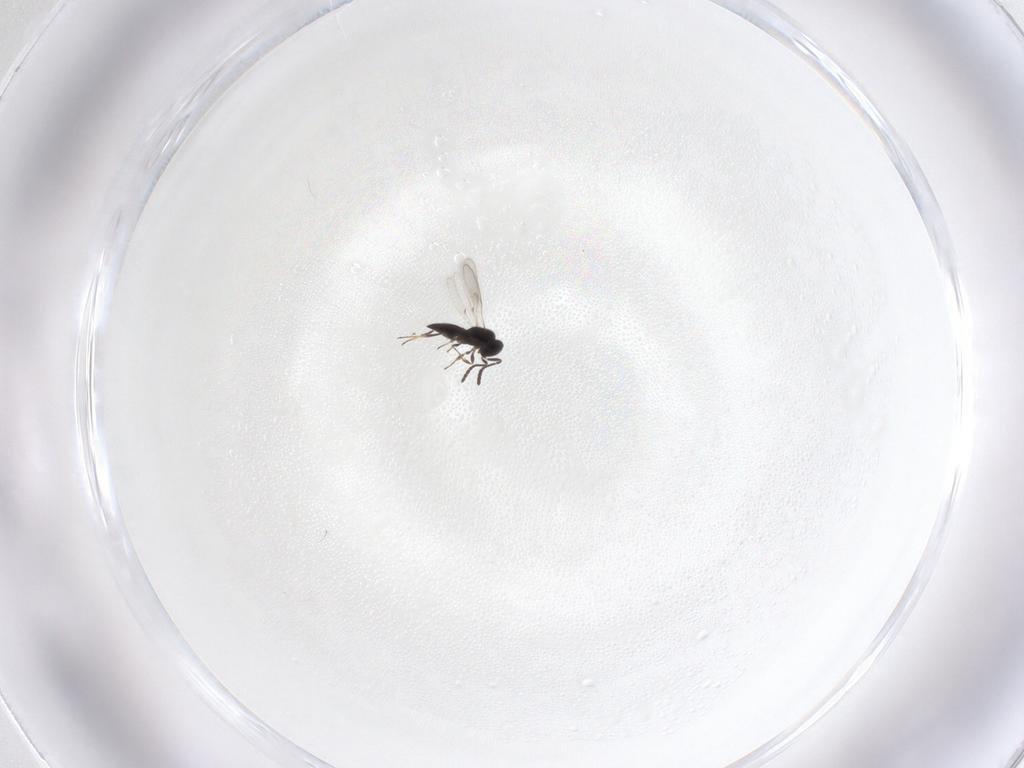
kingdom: Animalia
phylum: Arthropoda
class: Insecta
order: Hymenoptera
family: Scelionidae
